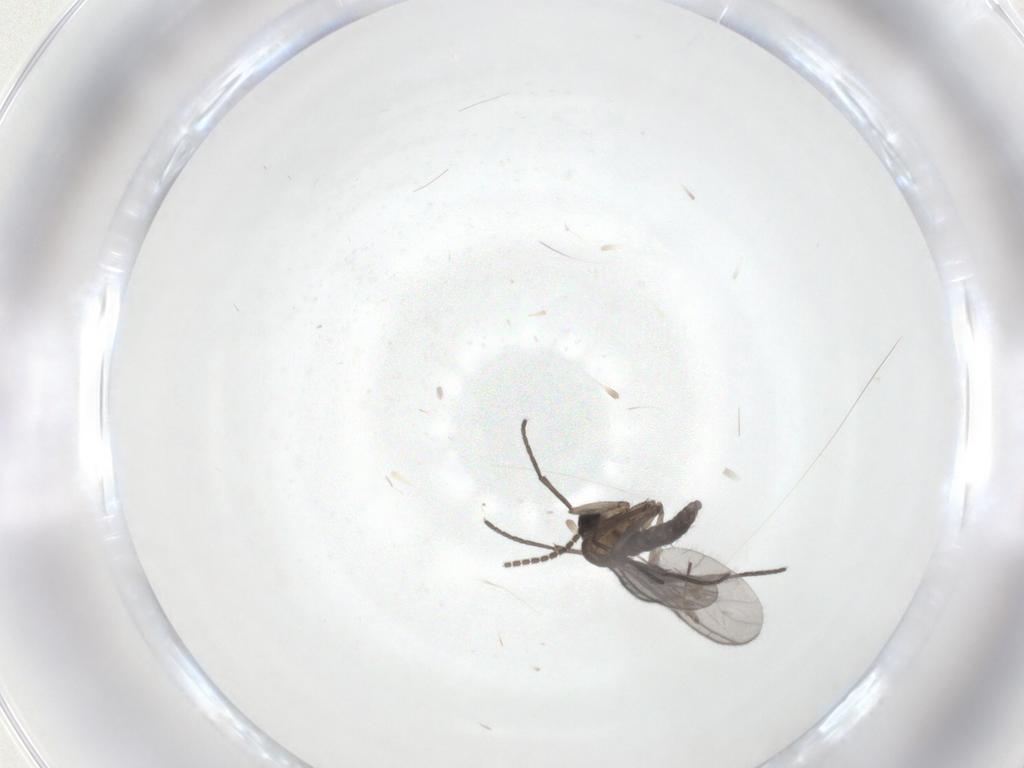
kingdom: Animalia
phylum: Arthropoda
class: Insecta
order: Diptera
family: Sciaridae
